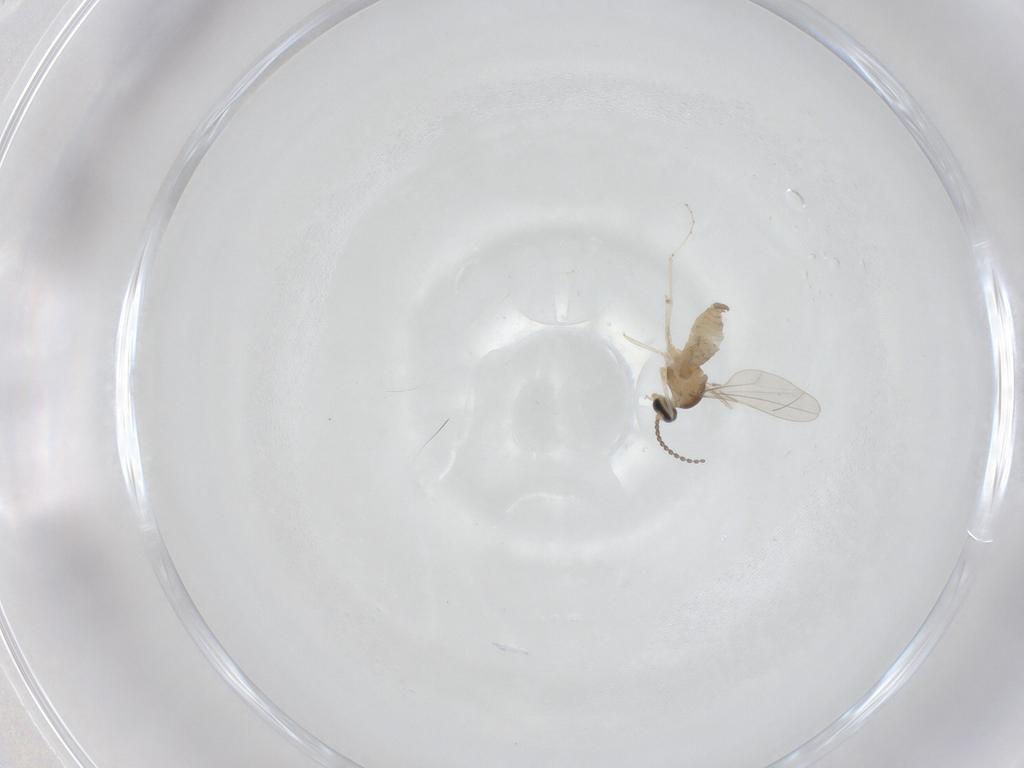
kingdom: Animalia
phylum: Arthropoda
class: Insecta
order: Diptera
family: Cecidomyiidae
